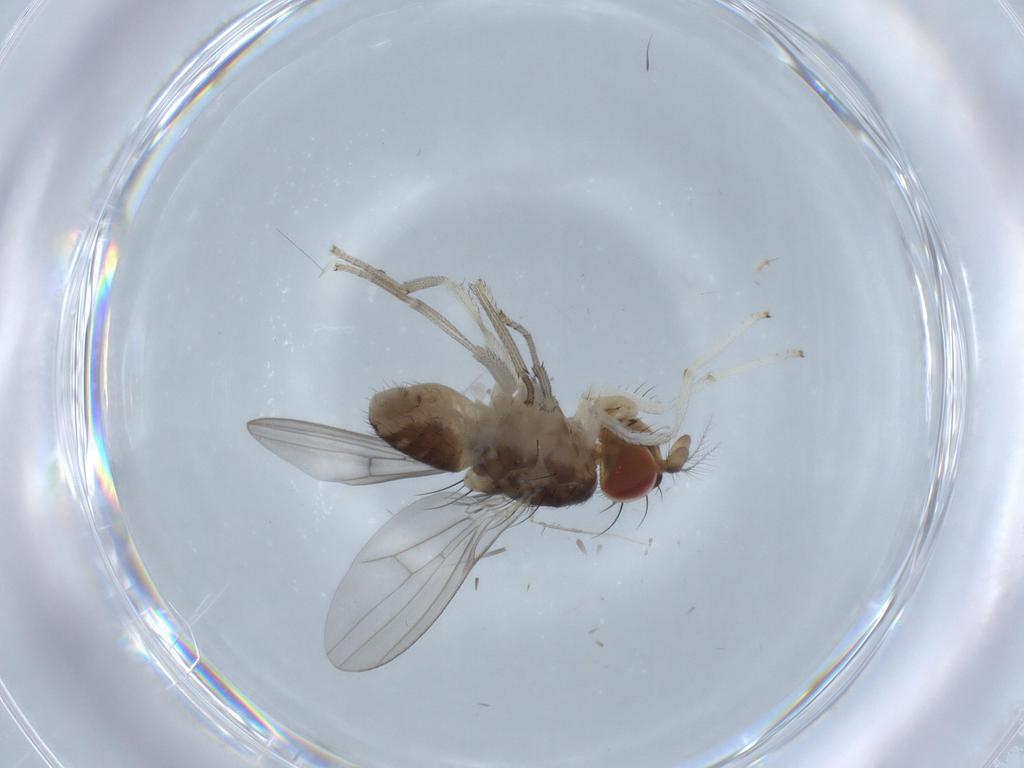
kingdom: Animalia
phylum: Arthropoda
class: Insecta
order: Diptera
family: Lauxaniidae
